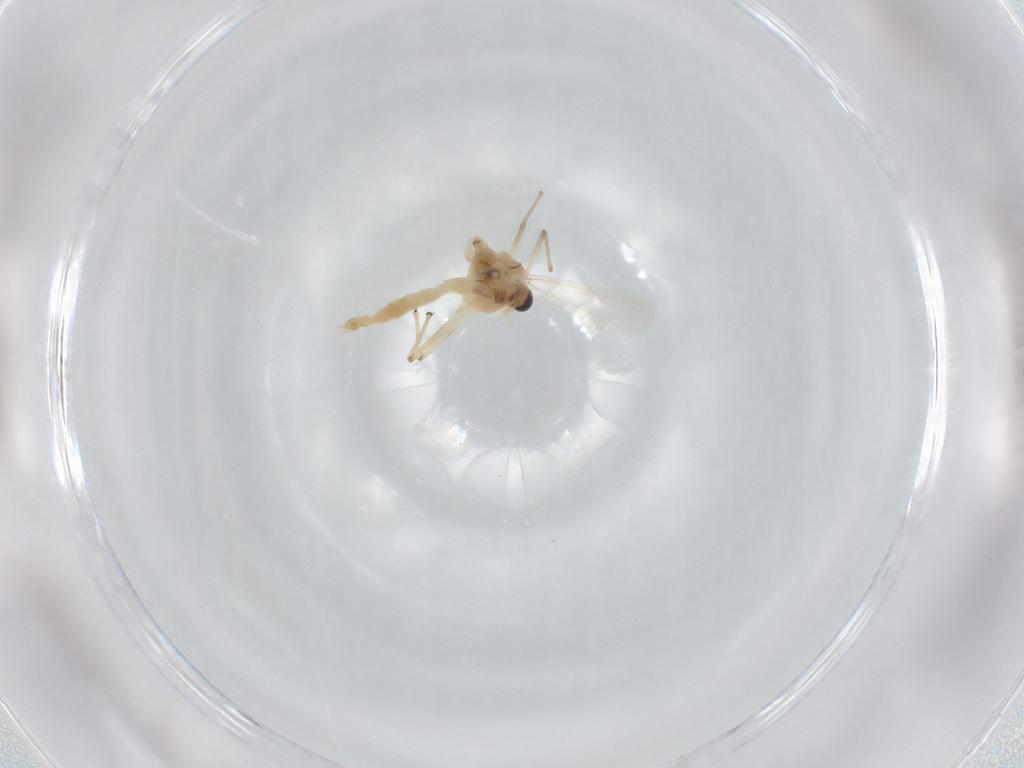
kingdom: Animalia
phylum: Arthropoda
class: Insecta
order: Diptera
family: Chironomidae
